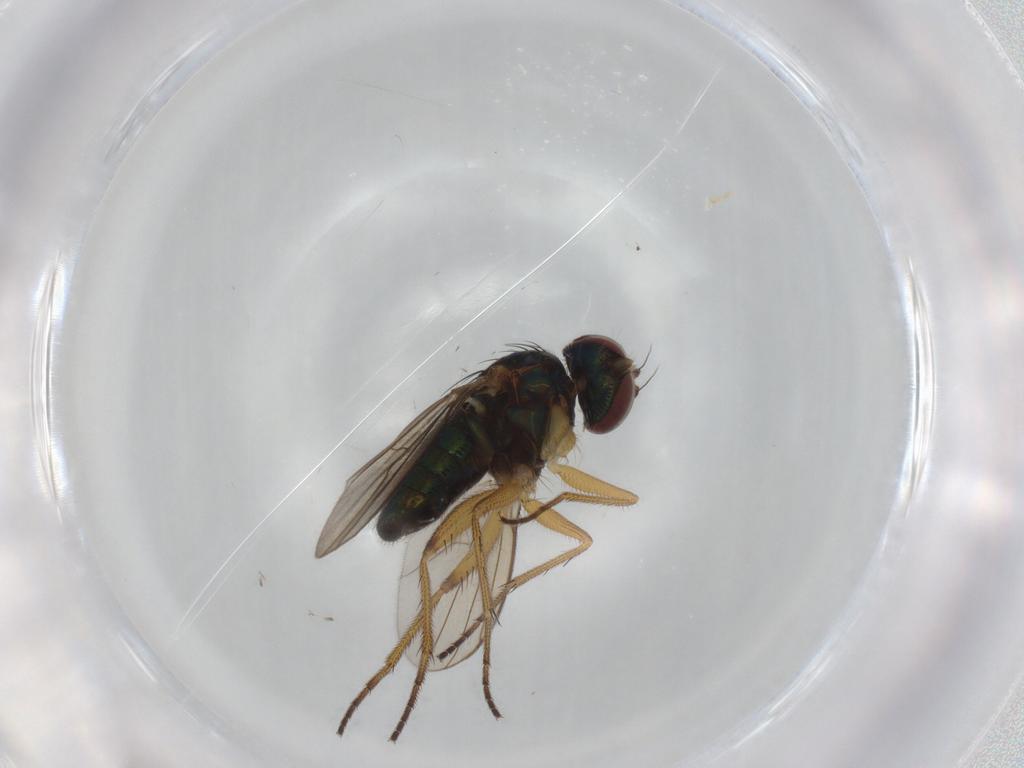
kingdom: Animalia
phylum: Arthropoda
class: Insecta
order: Diptera
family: Dolichopodidae
